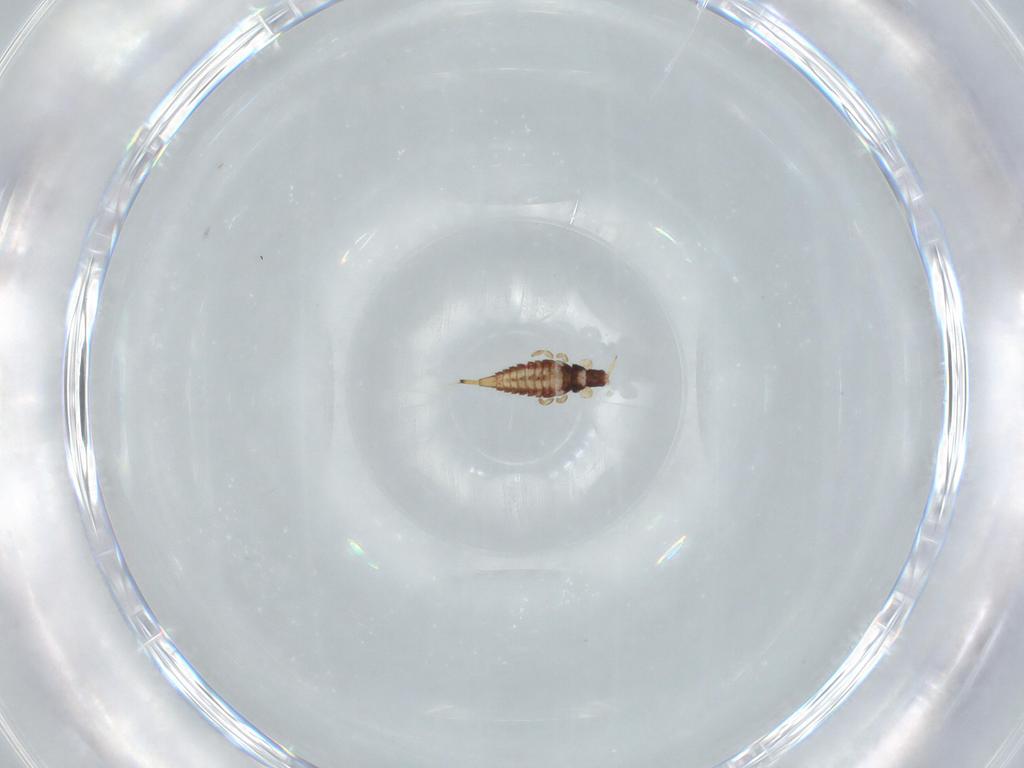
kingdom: Animalia
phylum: Arthropoda
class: Insecta
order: Thysanoptera
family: Phlaeothripidae
